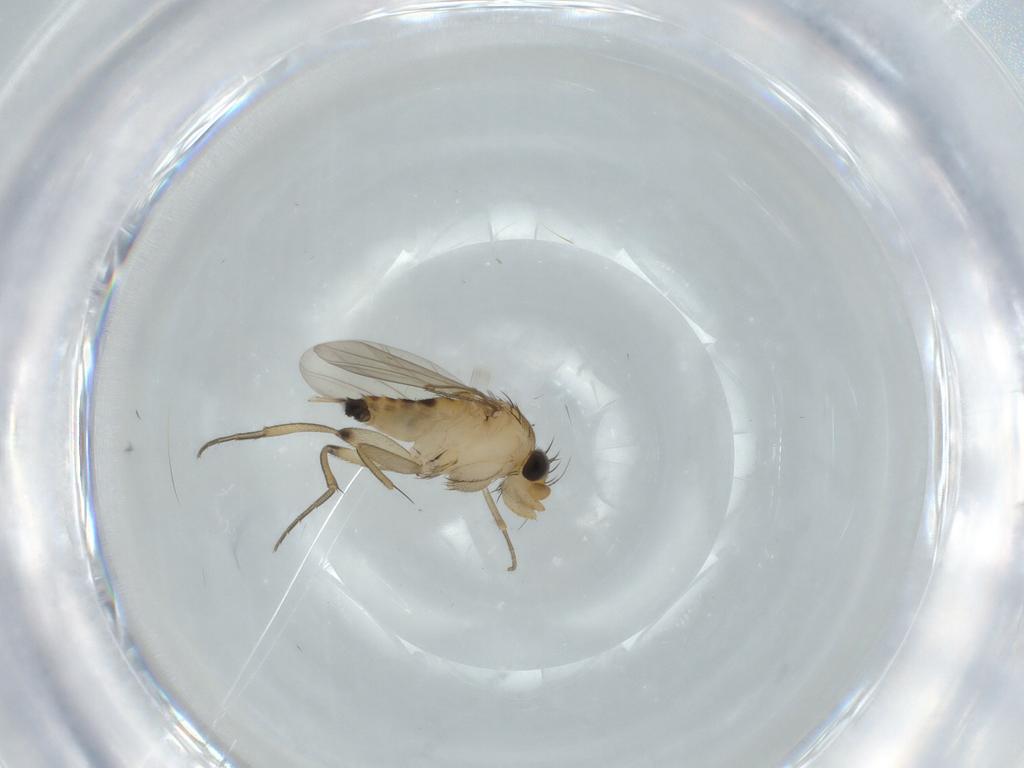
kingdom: Animalia
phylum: Arthropoda
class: Insecta
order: Diptera
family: Phoridae
